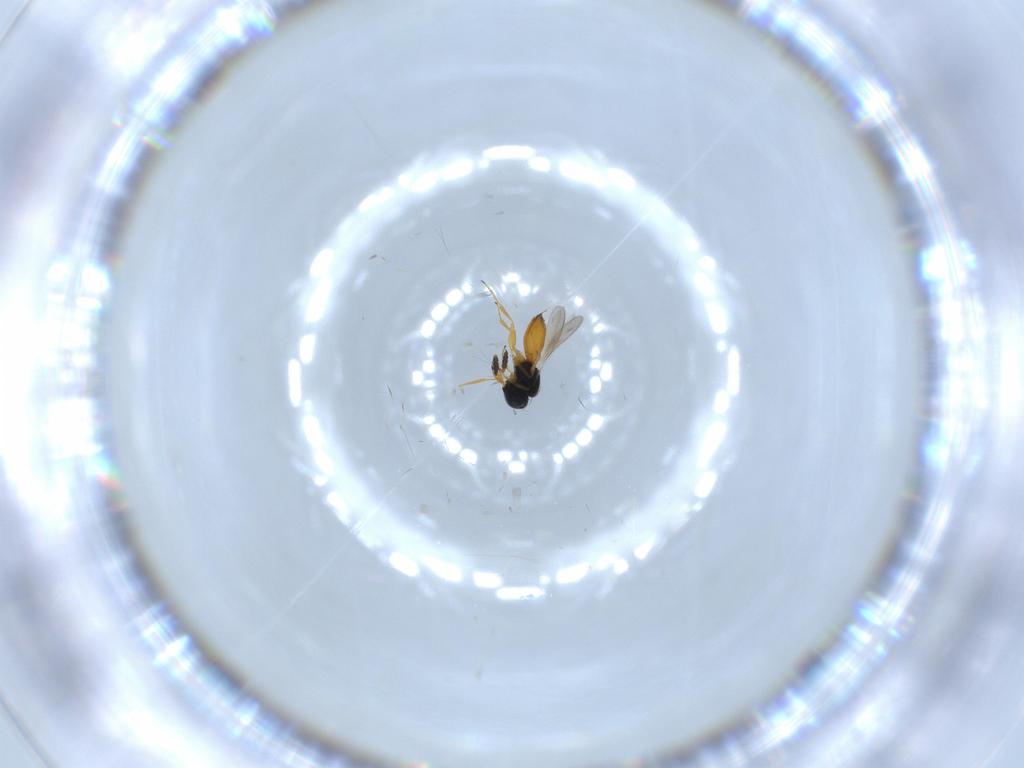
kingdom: Animalia
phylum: Arthropoda
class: Insecta
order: Hymenoptera
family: Scelionidae
